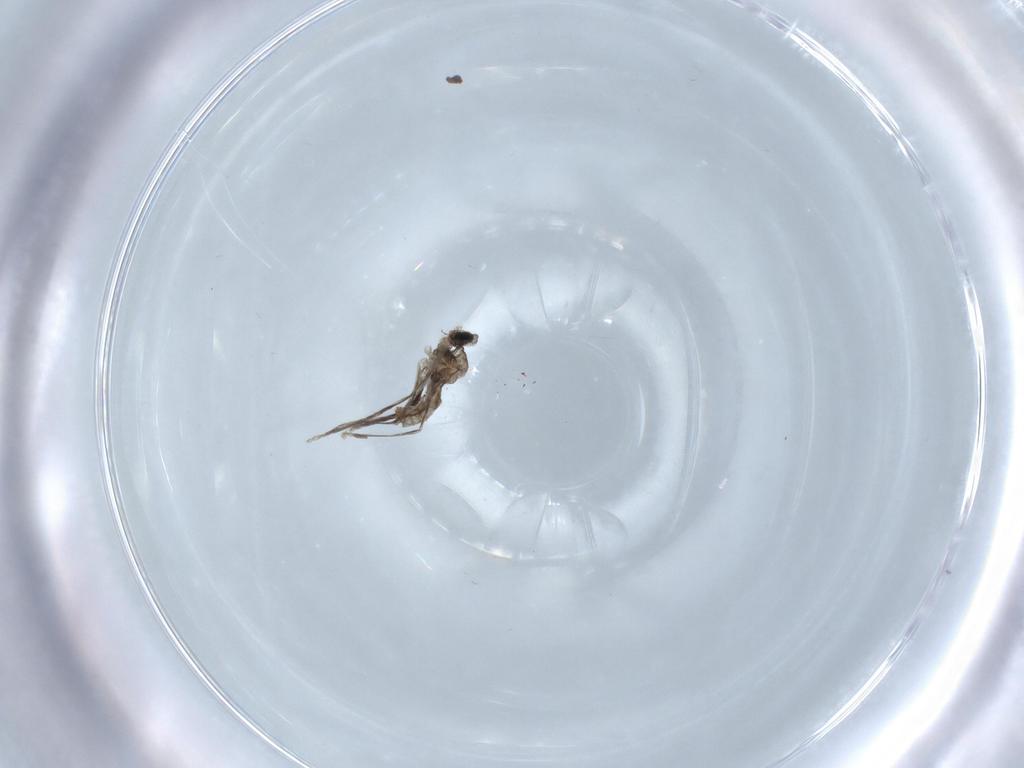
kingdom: Animalia
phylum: Arthropoda
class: Insecta
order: Diptera
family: Cecidomyiidae
